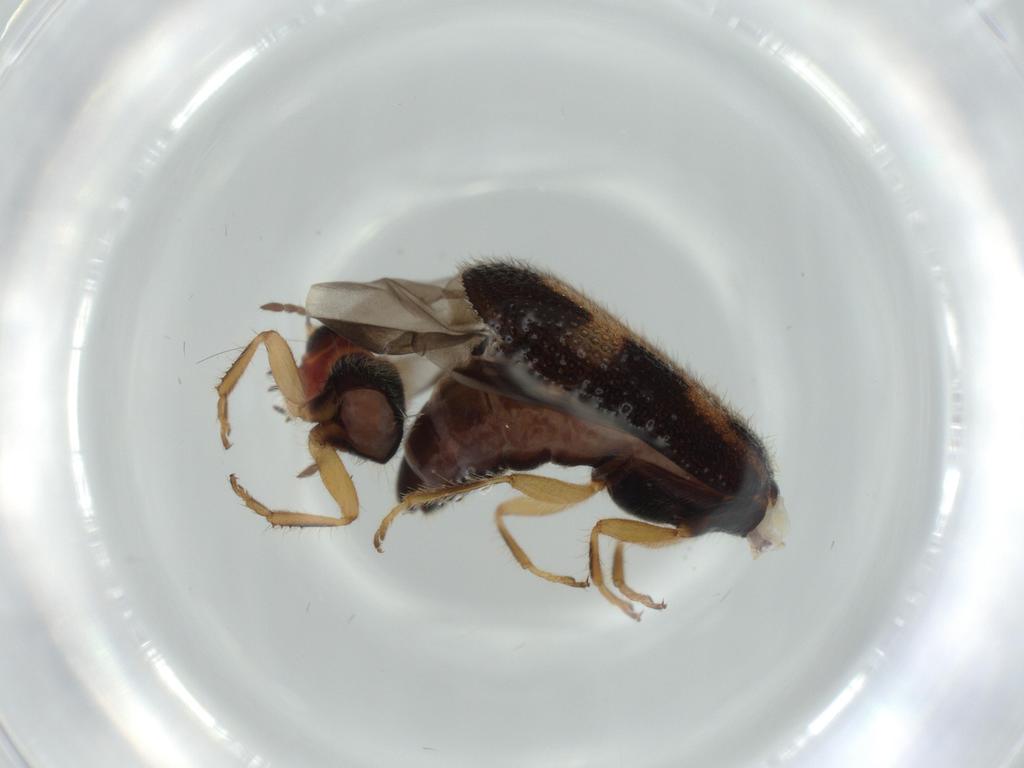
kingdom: Animalia
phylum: Arthropoda
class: Insecta
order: Coleoptera
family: Cleridae
